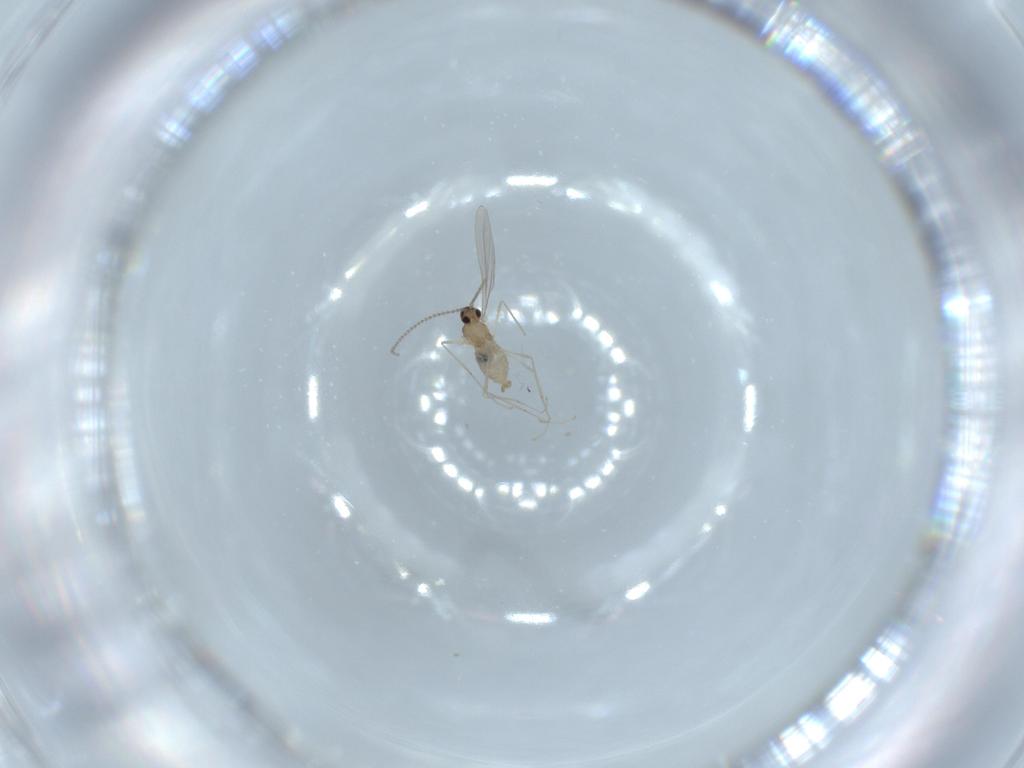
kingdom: Animalia
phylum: Arthropoda
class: Insecta
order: Diptera
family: Cecidomyiidae
